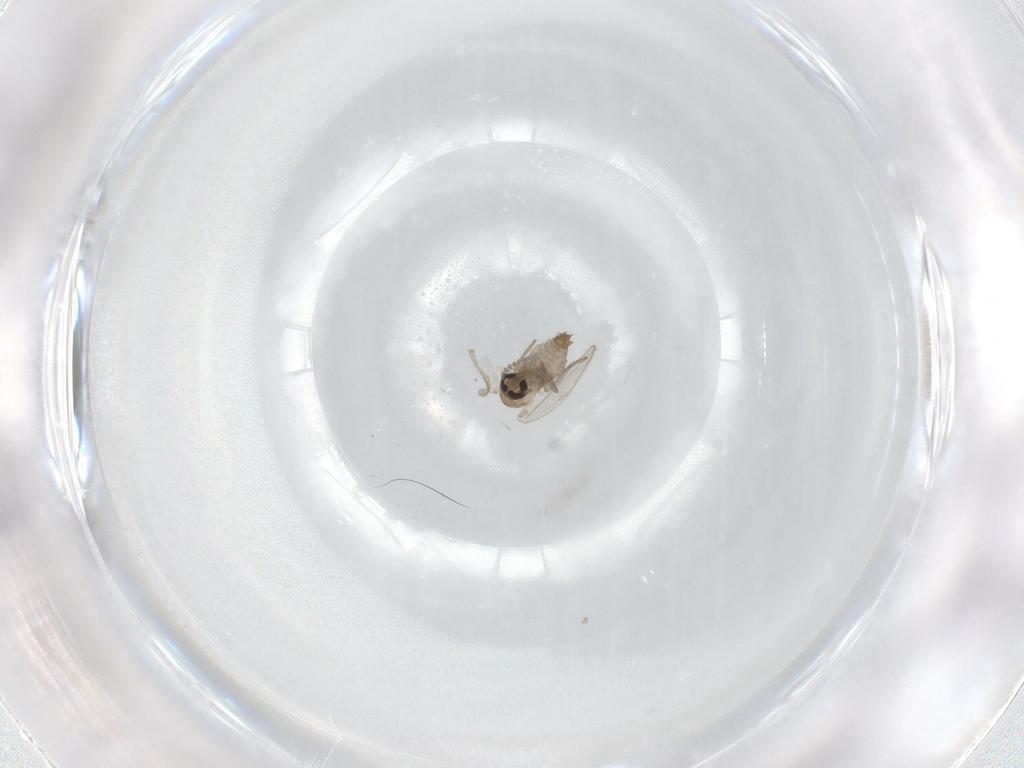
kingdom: Animalia
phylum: Arthropoda
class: Insecta
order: Diptera
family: Psychodidae
